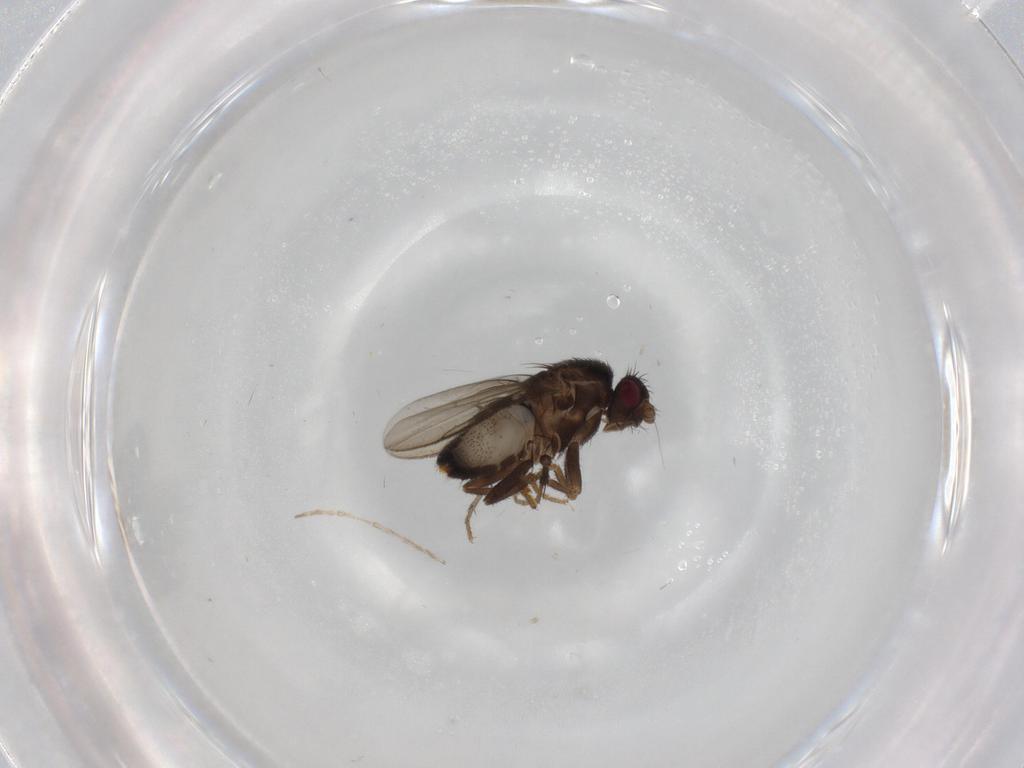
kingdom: Animalia
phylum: Arthropoda
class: Insecta
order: Diptera
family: Sphaeroceridae
